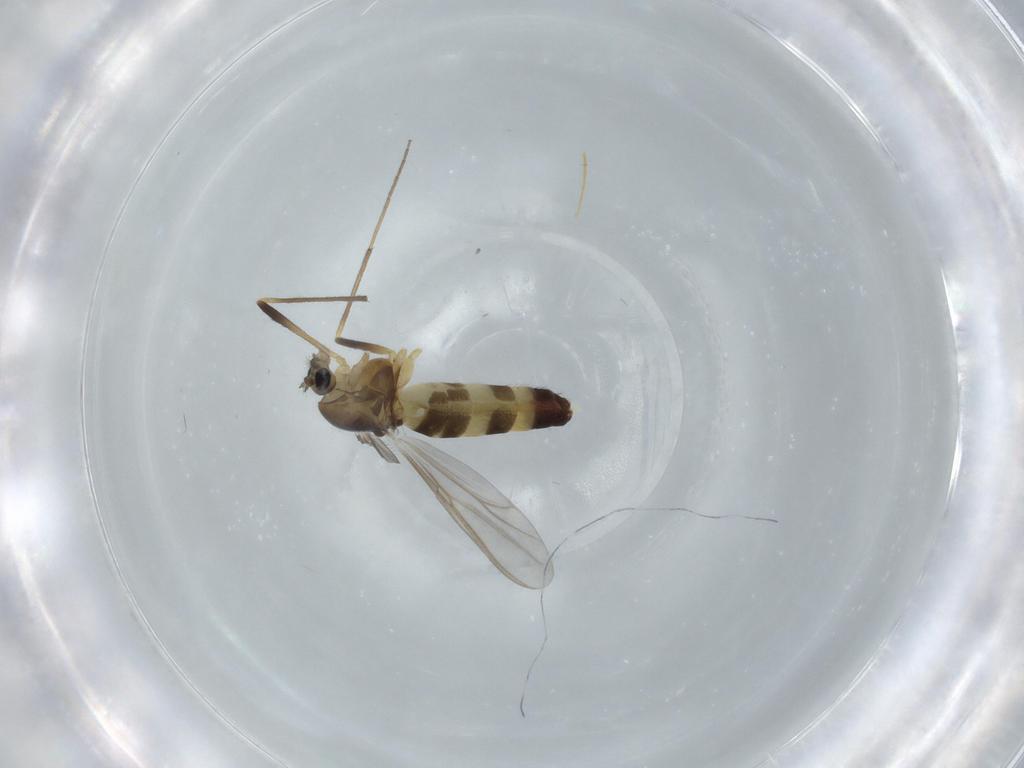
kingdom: Animalia
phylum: Arthropoda
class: Insecta
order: Diptera
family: Chironomidae
